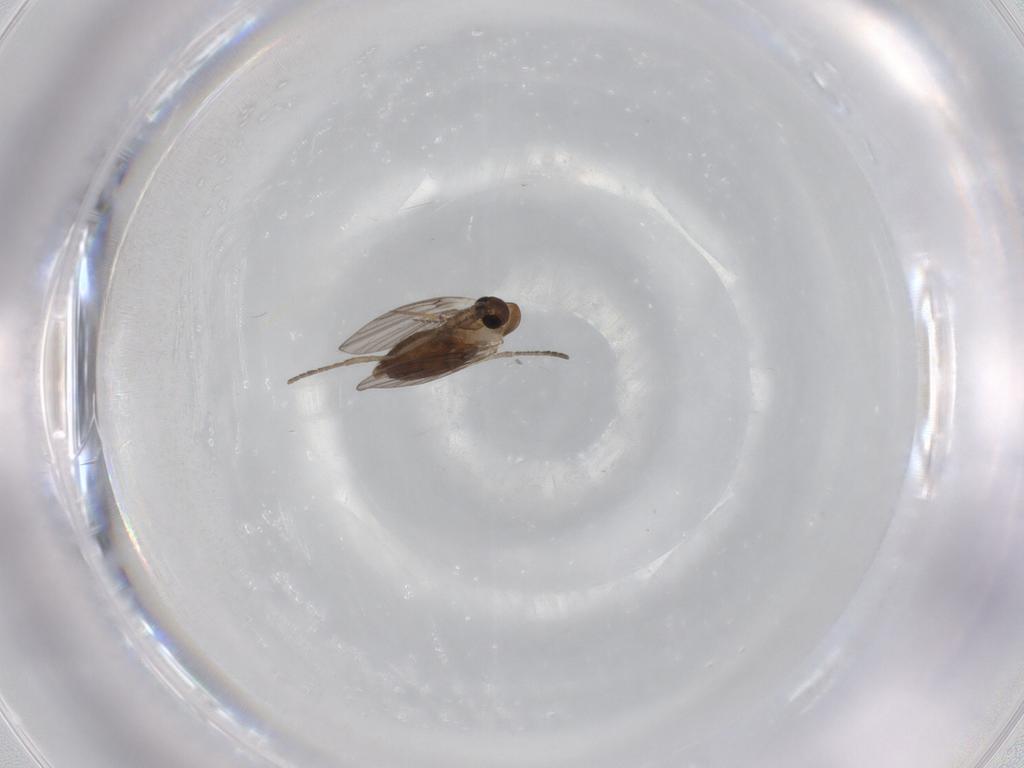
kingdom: Animalia
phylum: Arthropoda
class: Insecta
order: Diptera
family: Psychodidae
